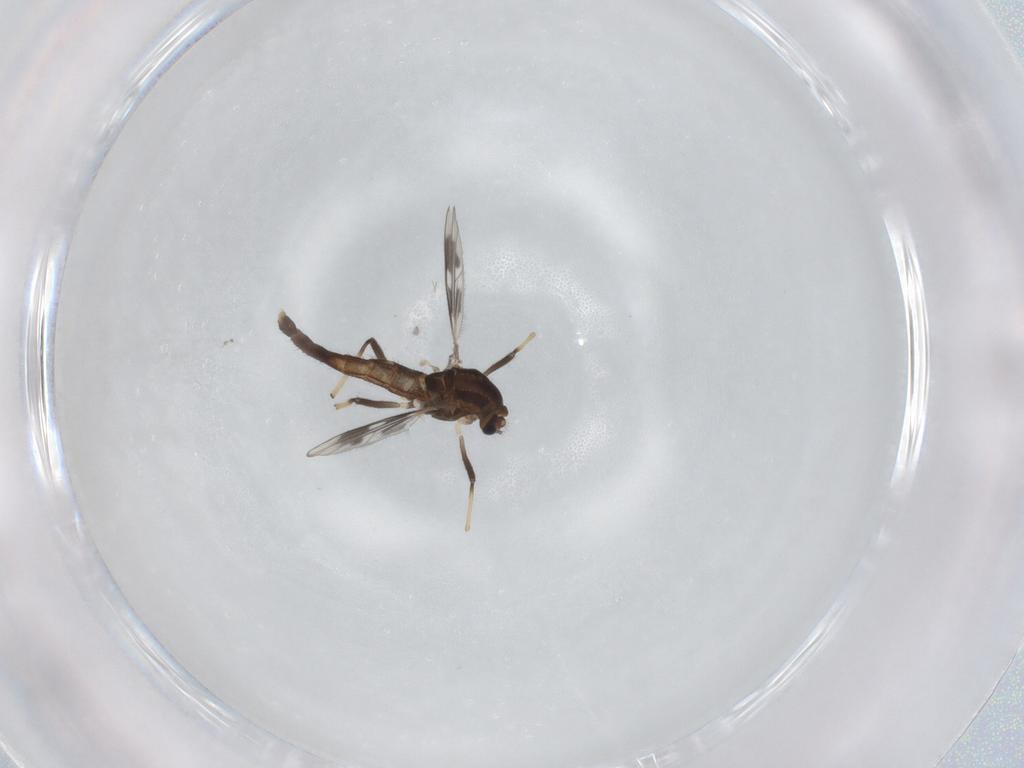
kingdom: Animalia
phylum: Arthropoda
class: Insecta
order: Diptera
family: Chironomidae
